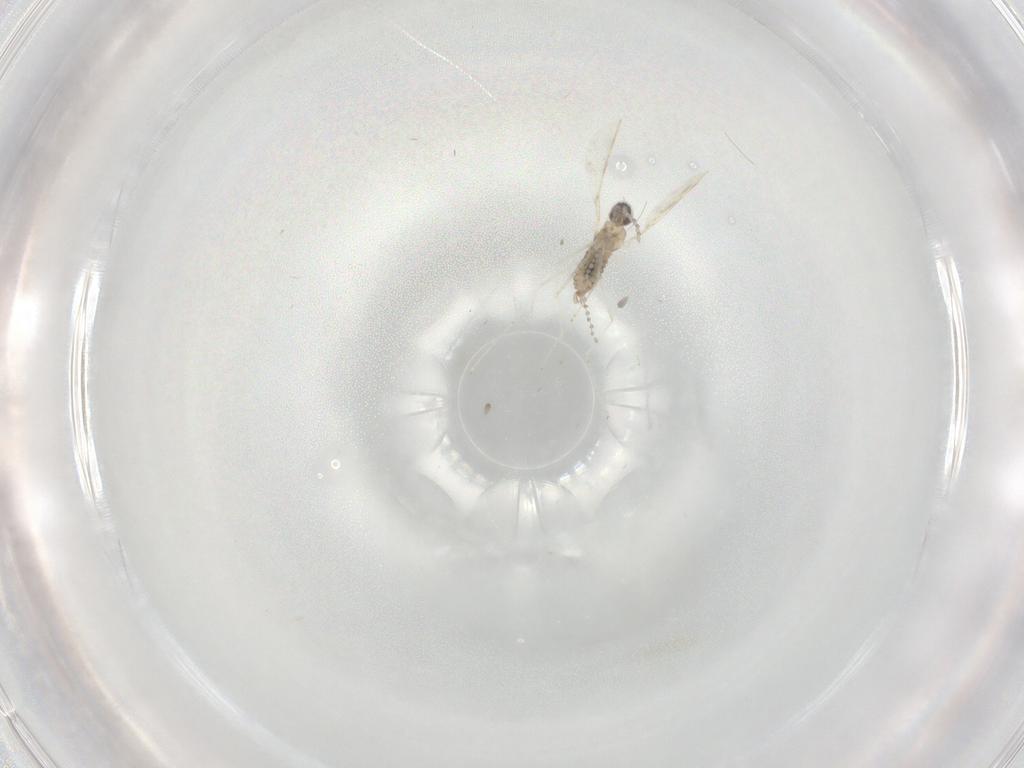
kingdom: Animalia
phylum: Arthropoda
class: Insecta
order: Diptera
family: Cecidomyiidae
